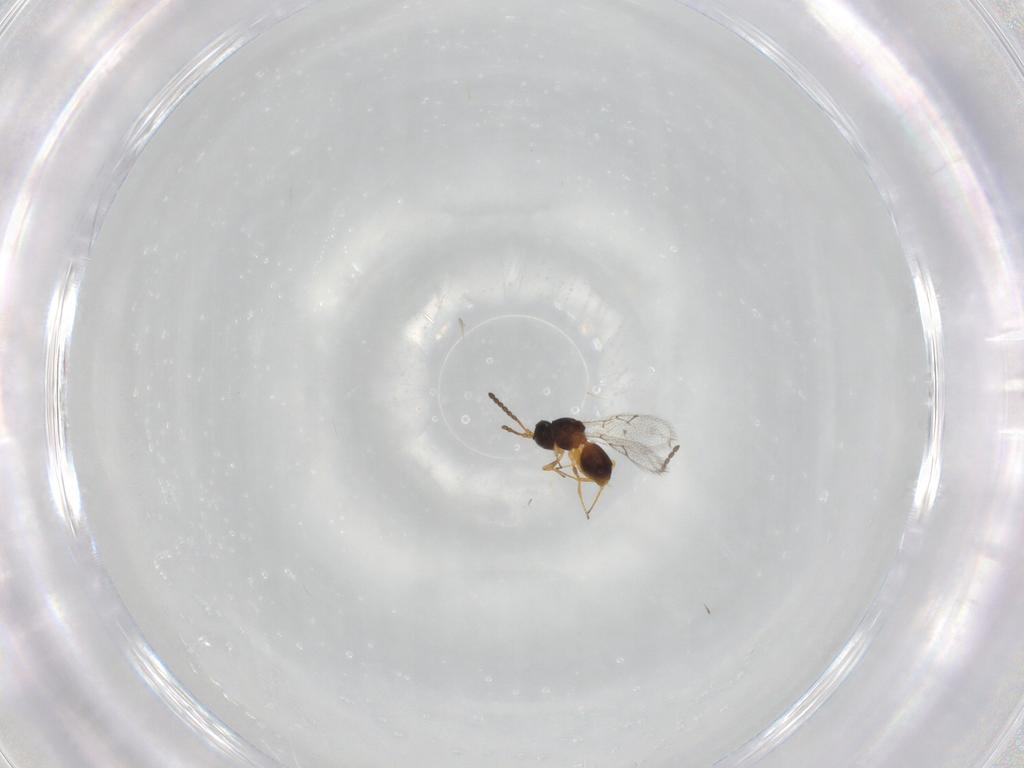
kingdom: Animalia
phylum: Arthropoda
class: Insecta
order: Hymenoptera
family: Figitidae
